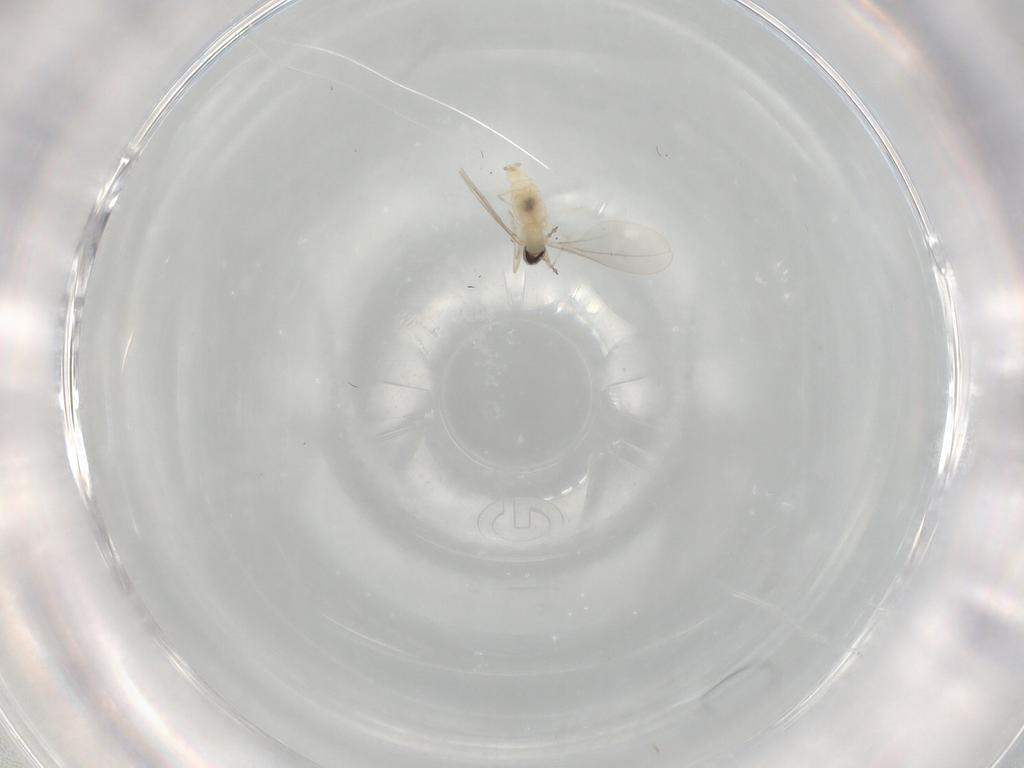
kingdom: Animalia
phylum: Arthropoda
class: Insecta
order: Diptera
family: Cecidomyiidae
